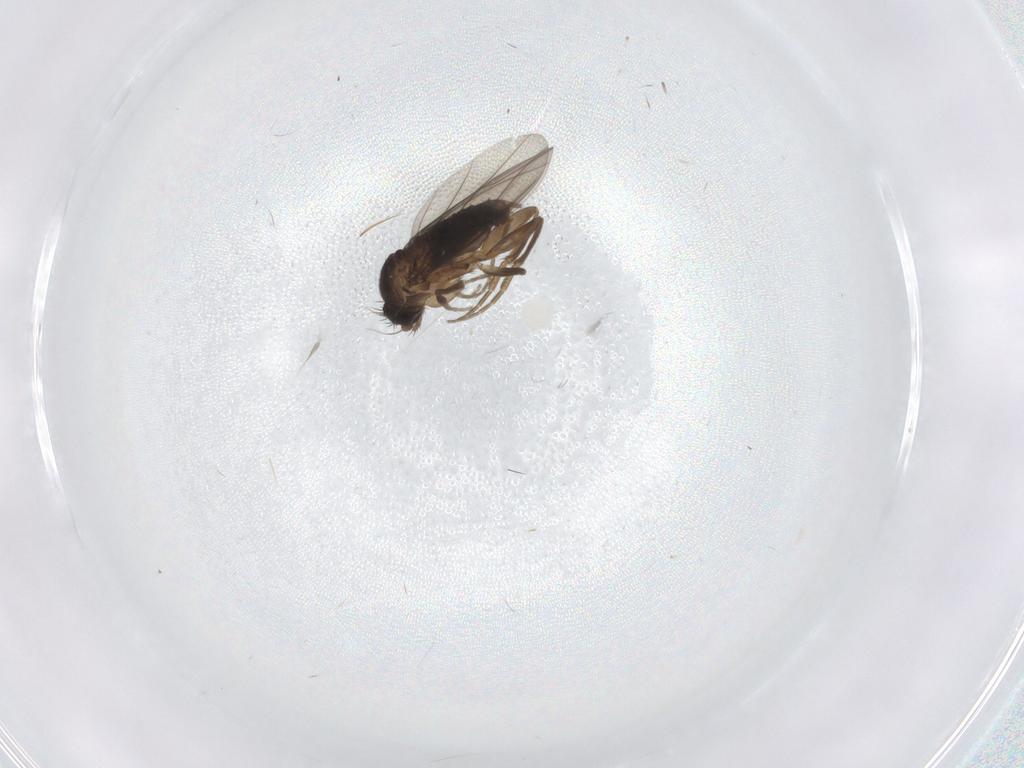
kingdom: Animalia
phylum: Arthropoda
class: Insecta
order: Diptera
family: Phoridae
